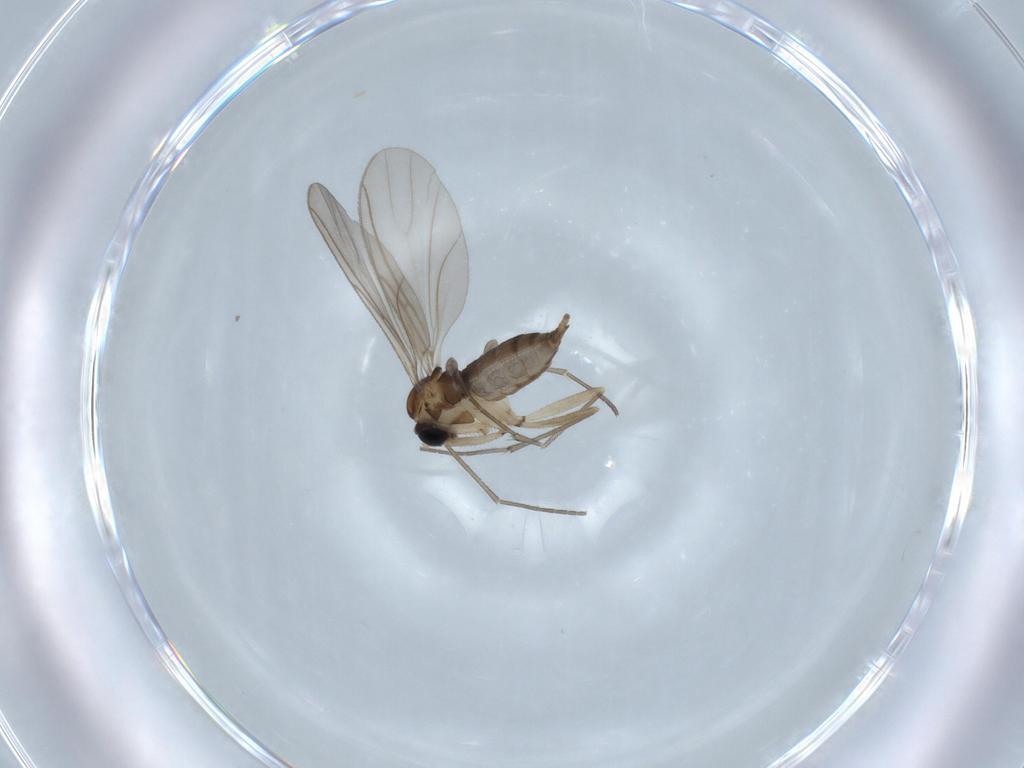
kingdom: Animalia
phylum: Arthropoda
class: Insecta
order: Diptera
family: Sciaridae
